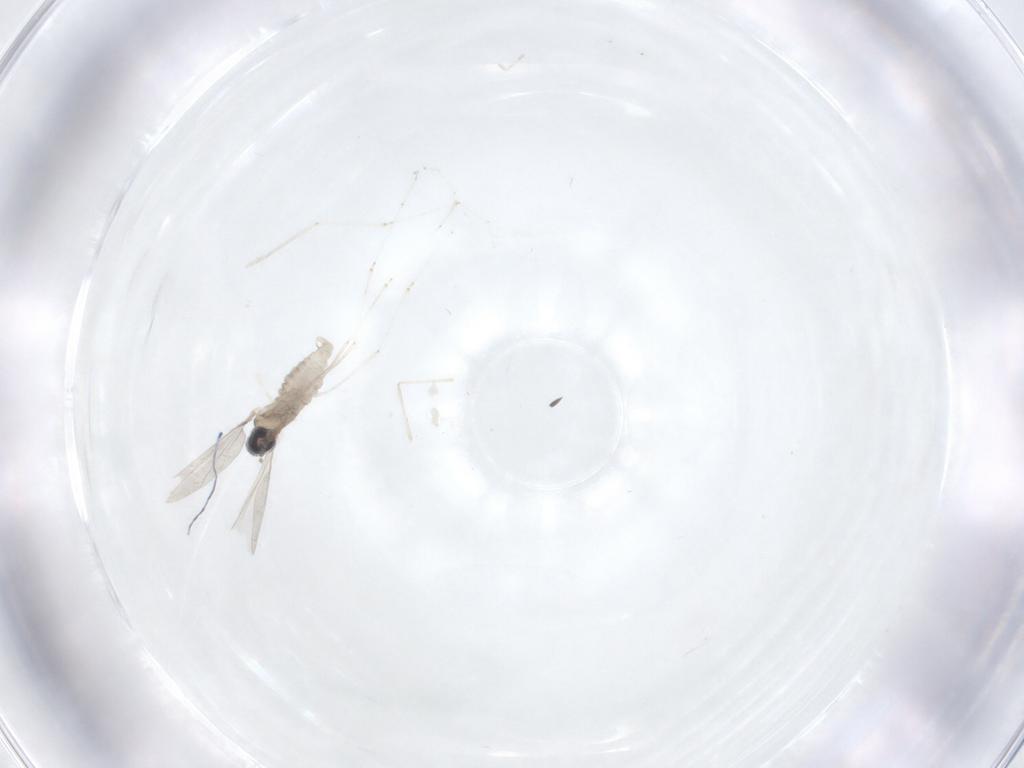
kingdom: Animalia
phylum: Arthropoda
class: Insecta
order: Diptera
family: Cecidomyiidae
